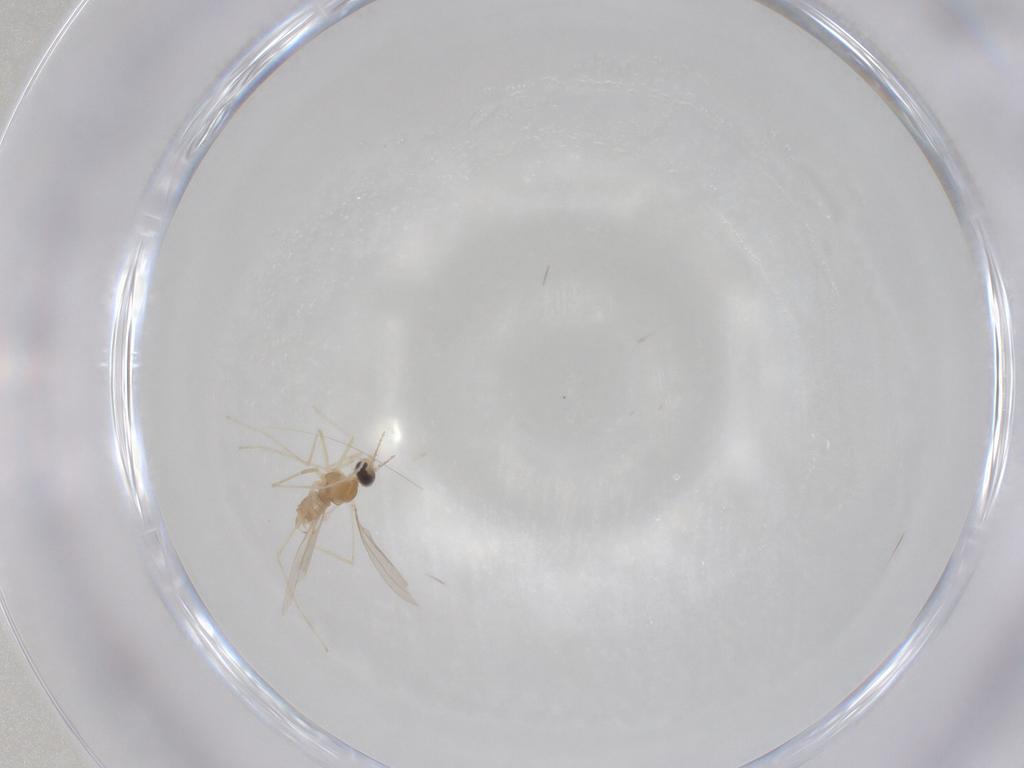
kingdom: Animalia
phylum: Arthropoda
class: Insecta
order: Diptera
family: Cecidomyiidae
